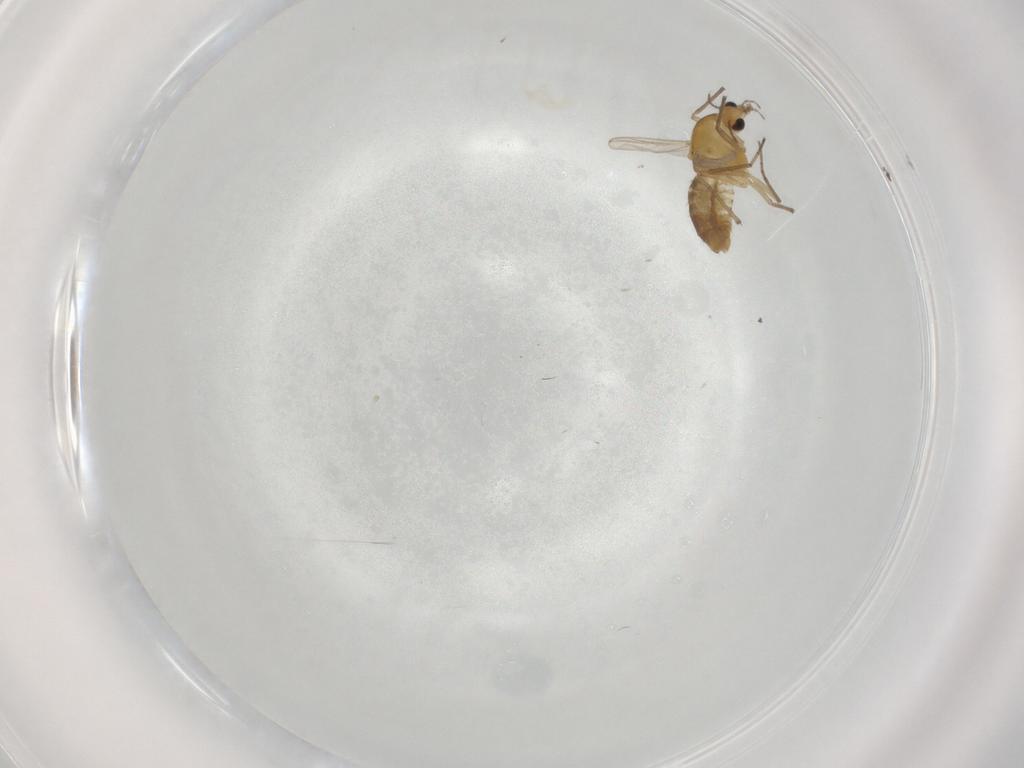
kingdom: Animalia
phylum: Arthropoda
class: Insecta
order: Diptera
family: Chironomidae
